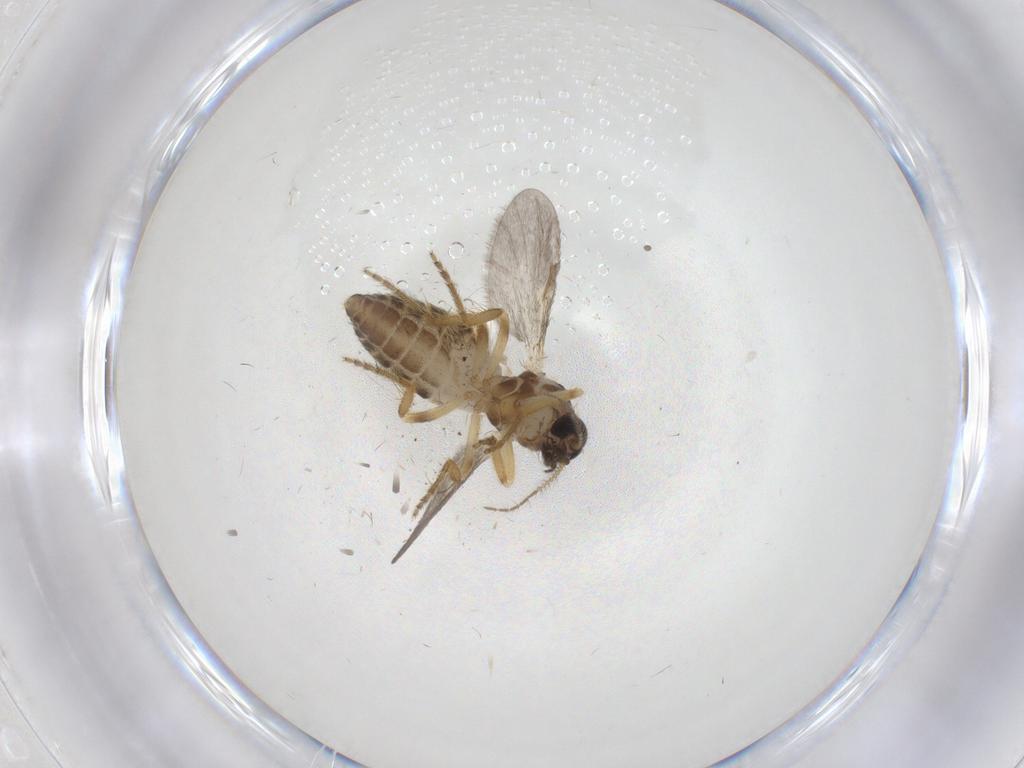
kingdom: Animalia
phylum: Arthropoda
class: Insecta
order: Diptera
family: Ceratopogonidae
